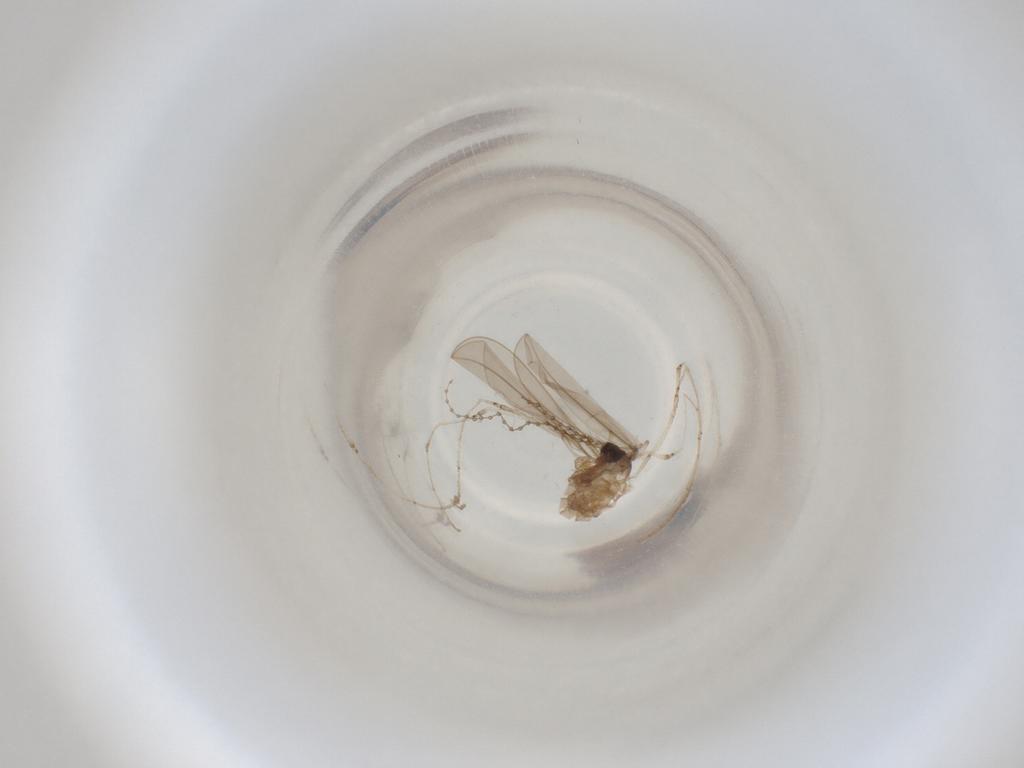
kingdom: Animalia
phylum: Arthropoda
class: Insecta
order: Diptera
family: Cecidomyiidae
